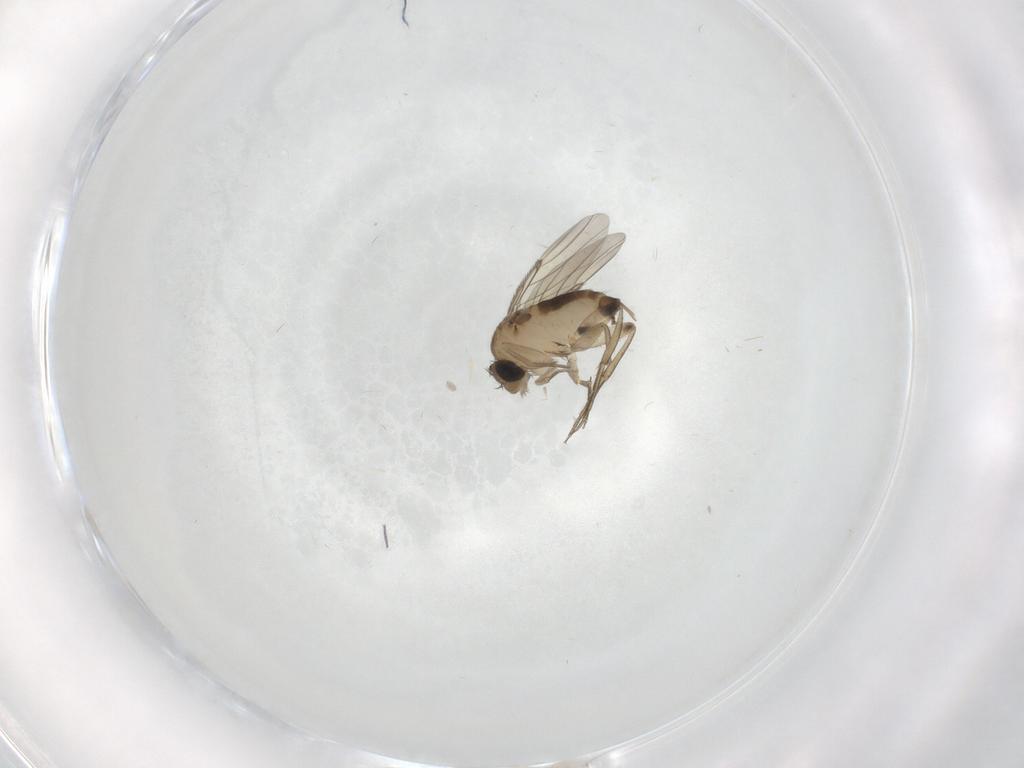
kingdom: Animalia
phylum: Arthropoda
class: Insecta
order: Diptera
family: Phoridae
